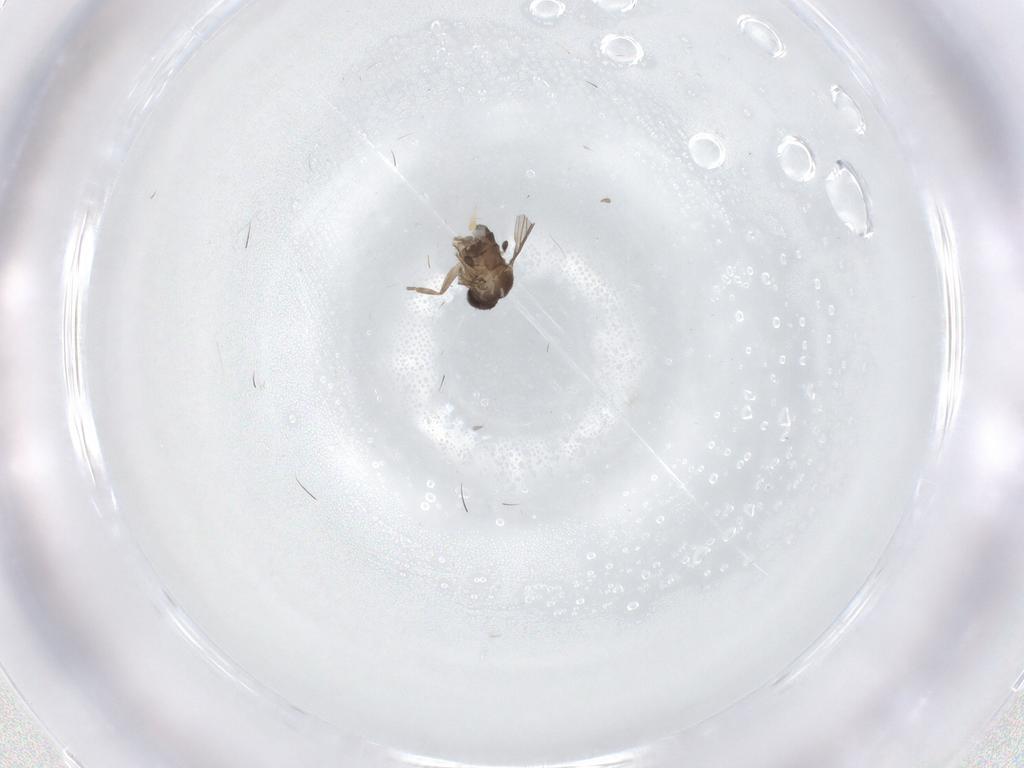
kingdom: Animalia
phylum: Arthropoda
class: Insecta
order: Diptera
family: Phoridae
